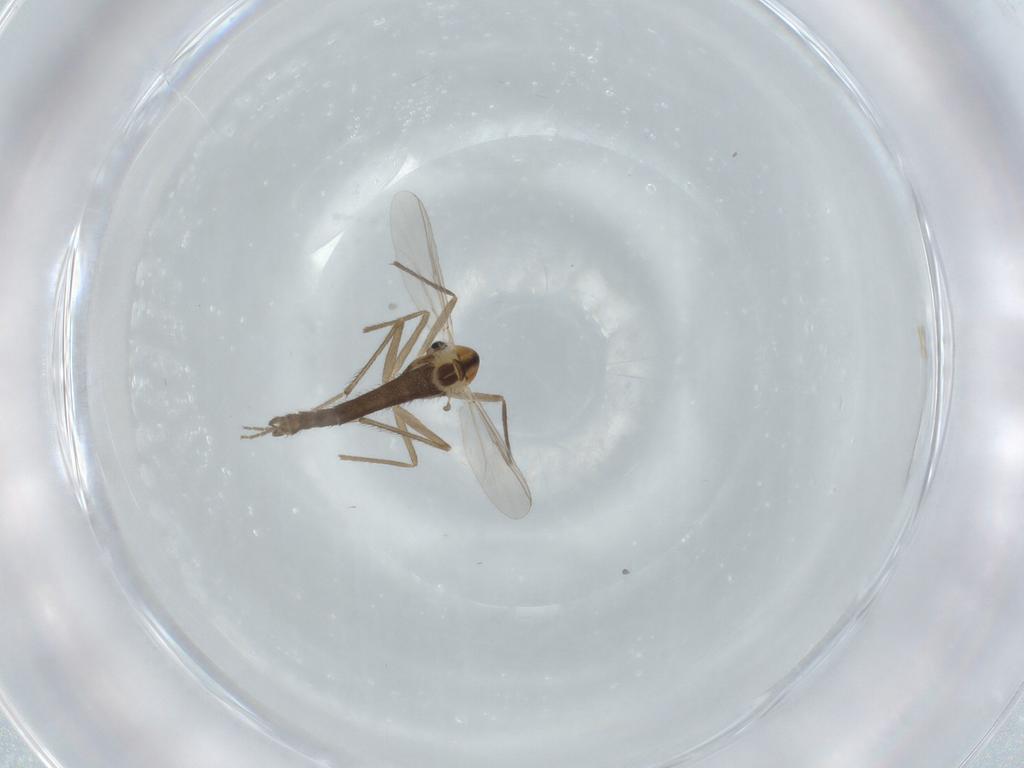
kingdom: Animalia
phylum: Arthropoda
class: Insecta
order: Diptera
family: Chironomidae
